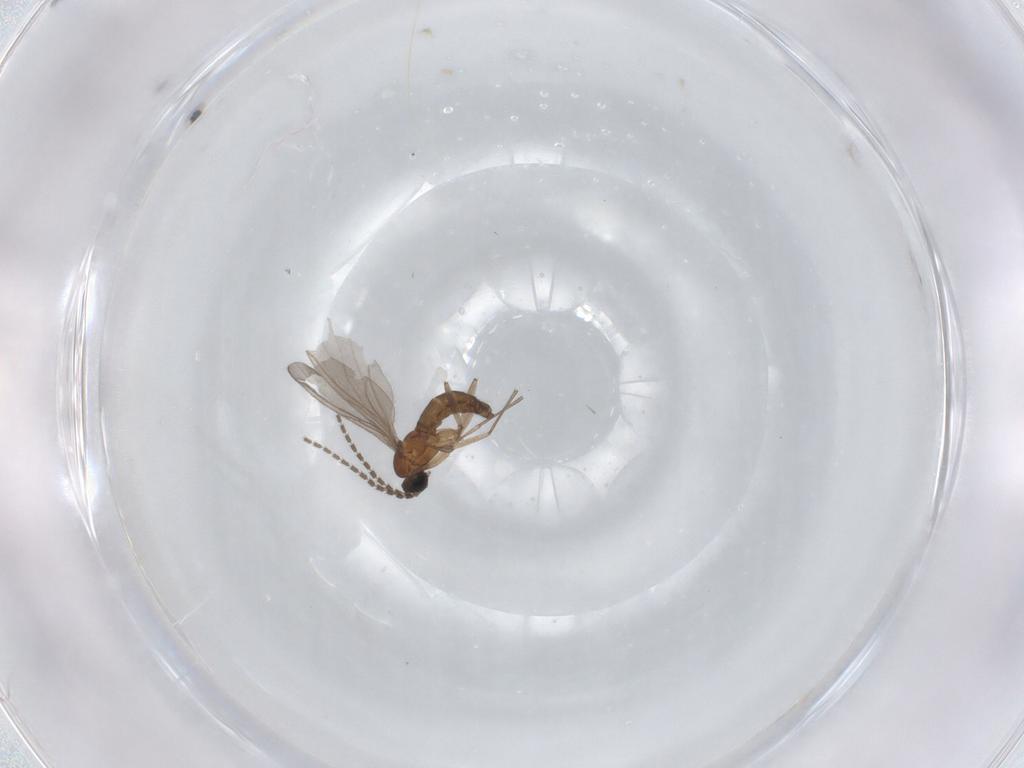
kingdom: Animalia
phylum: Arthropoda
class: Insecta
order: Diptera
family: Sciaridae
